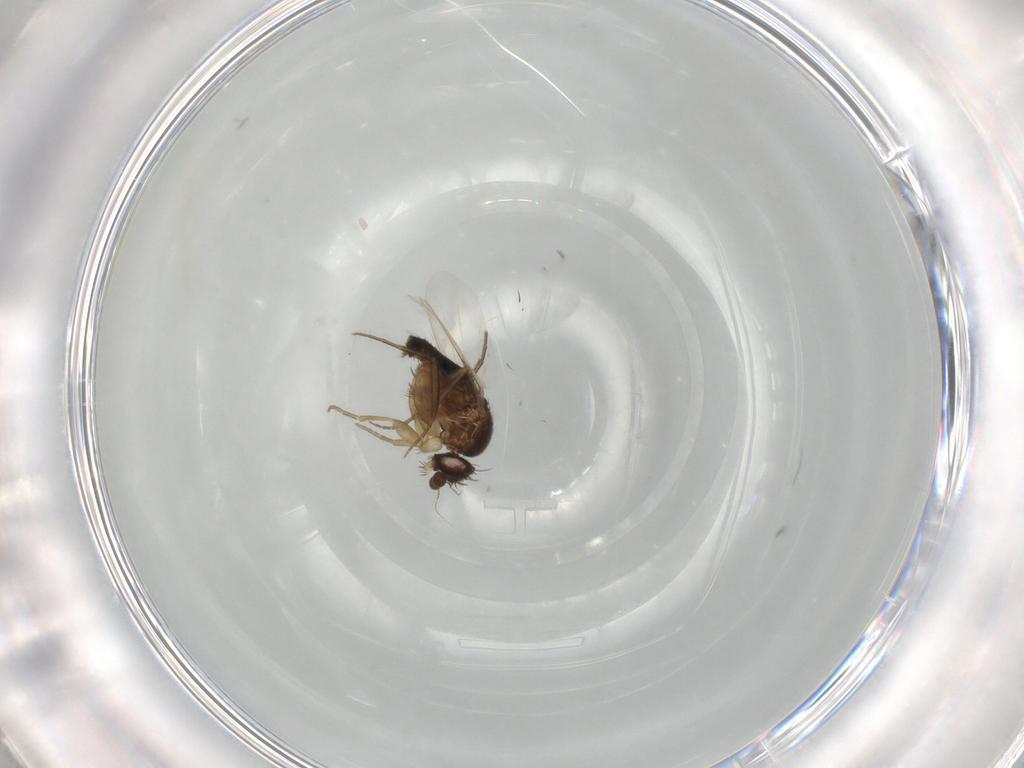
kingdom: Animalia
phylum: Arthropoda
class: Insecta
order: Diptera
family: Phoridae
